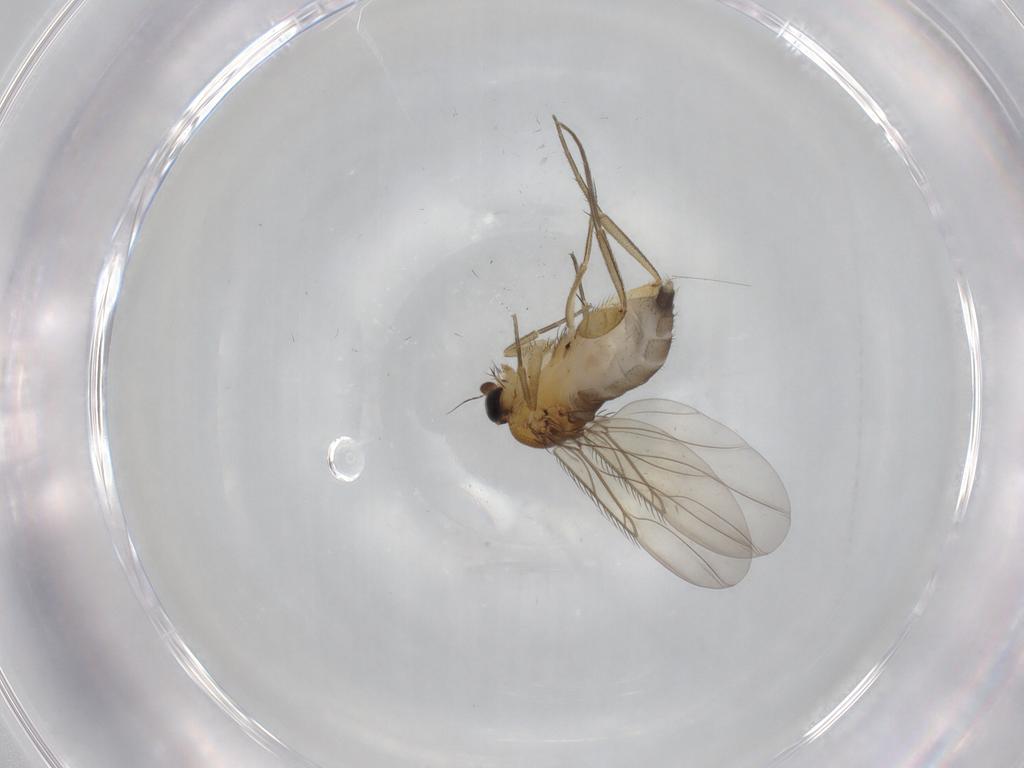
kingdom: Animalia
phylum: Arthropoda
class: Insecta
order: Diptera
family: Phoridae
